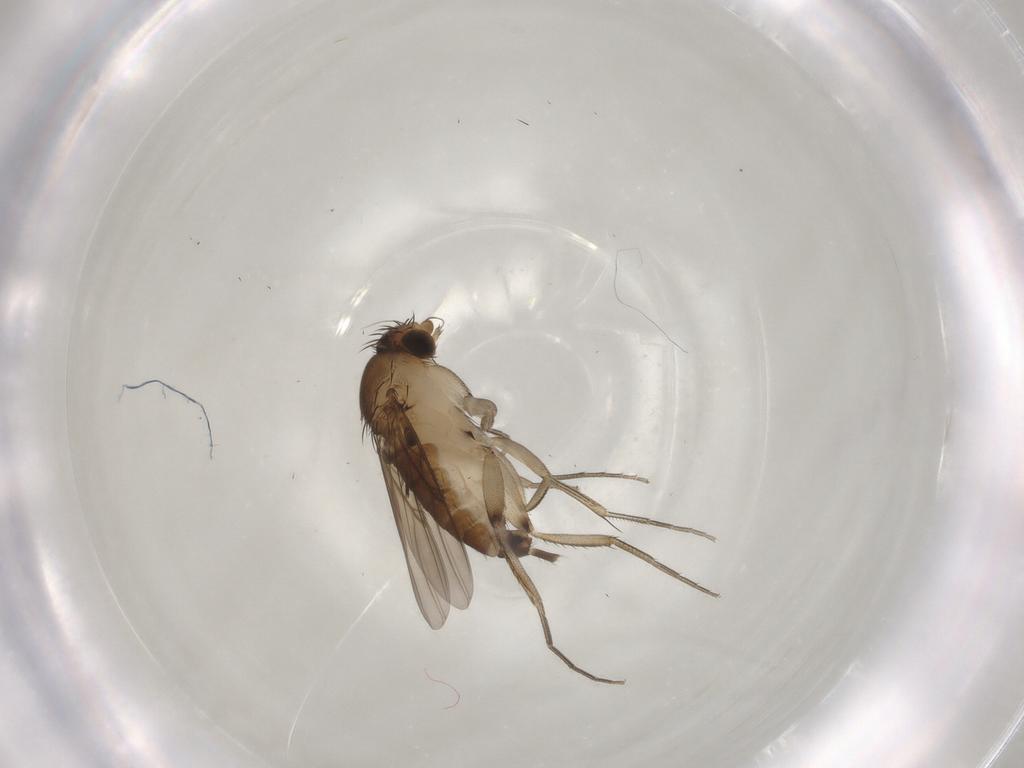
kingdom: Animalia
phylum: Arthropoda
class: Insecta
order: Diptera
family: Phoridae
